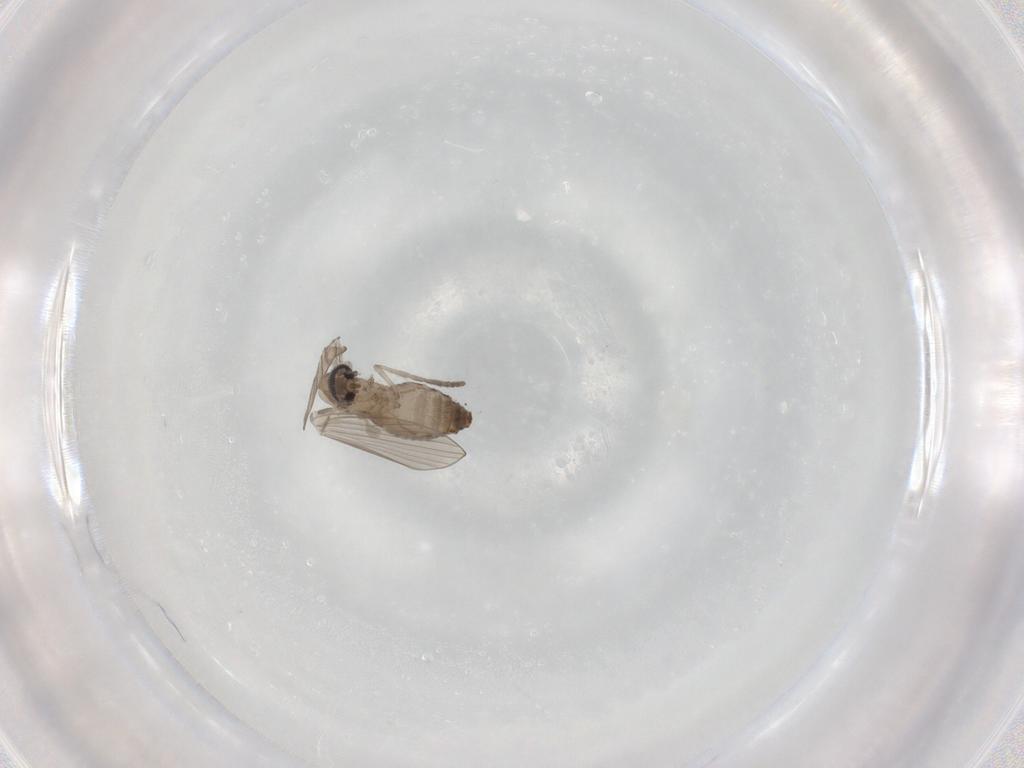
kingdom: Animalia
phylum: Arthropoda
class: Insecta
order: Diptera
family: Psychodidae
